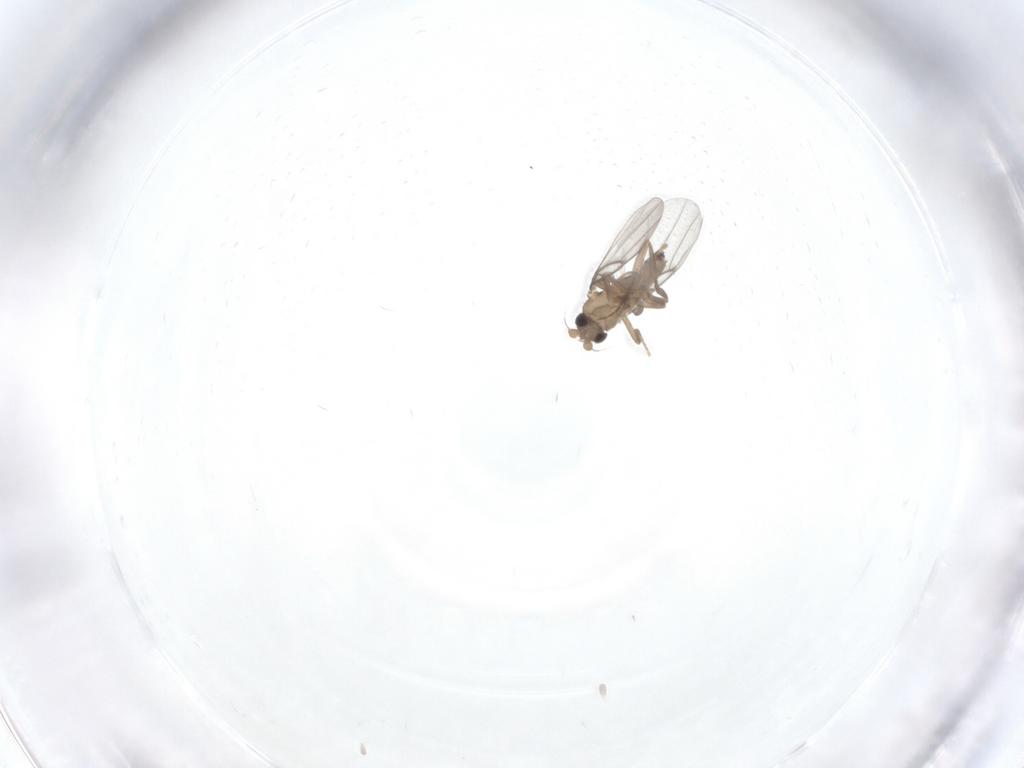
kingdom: Animalia
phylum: Arthropoda
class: Insecta
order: Diptera
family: Ceratopogonidae
